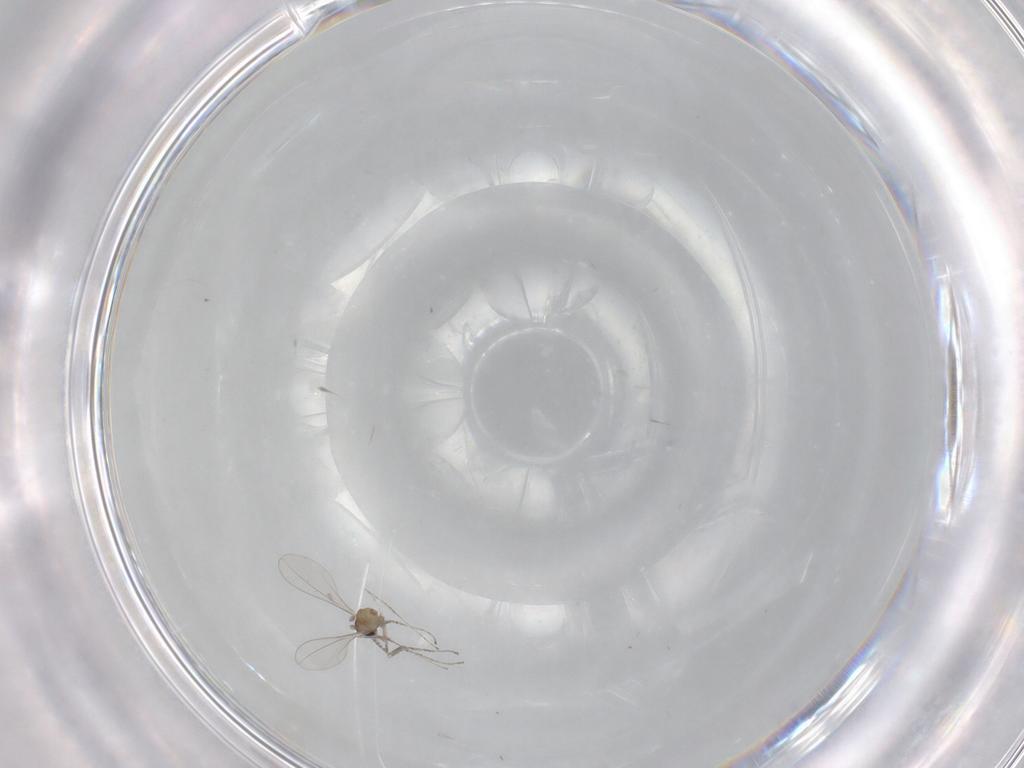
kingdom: Animalia
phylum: Arthropoda
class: Insecta
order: Diptera
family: Cecidomyiidae
